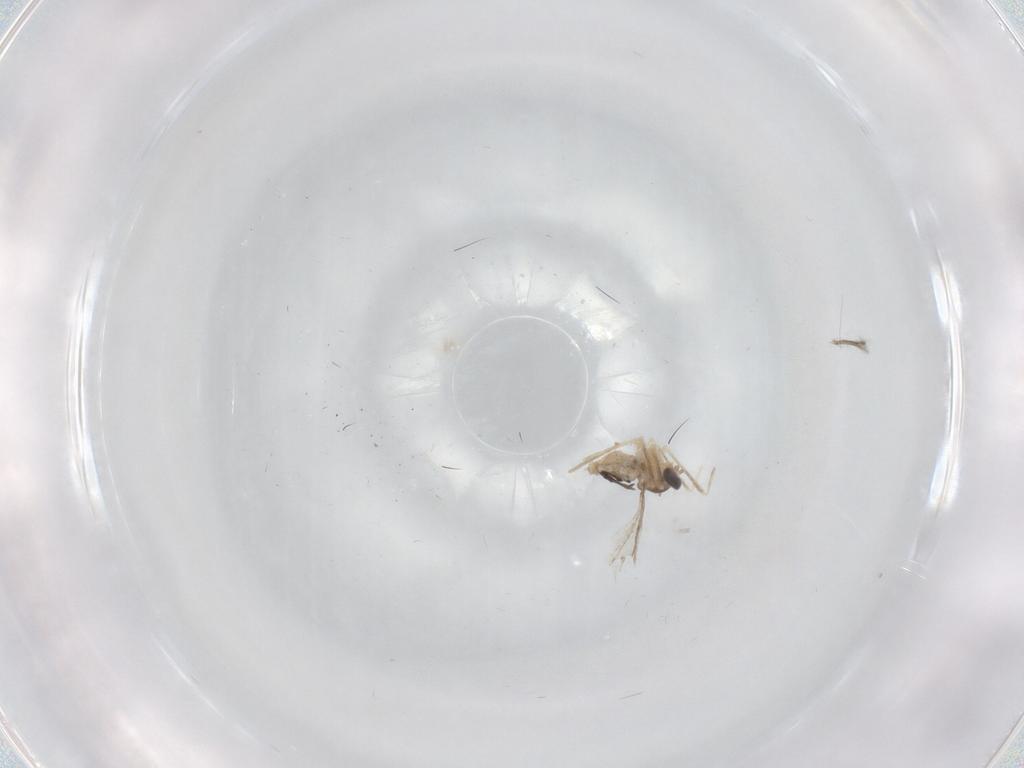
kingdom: Animalia
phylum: Arthropoda
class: Insecta
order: Diptera
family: Cecidomyiidae
